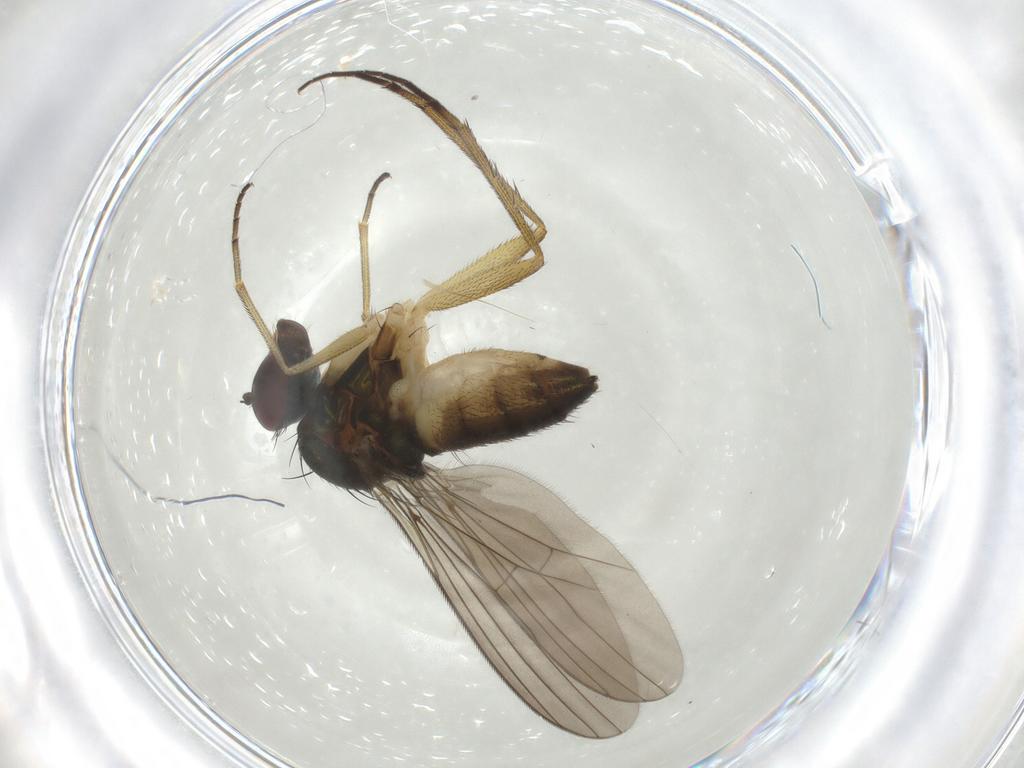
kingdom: Animalia
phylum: Arthropoda
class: Insecta
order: Diptera
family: Dolichopodidae
